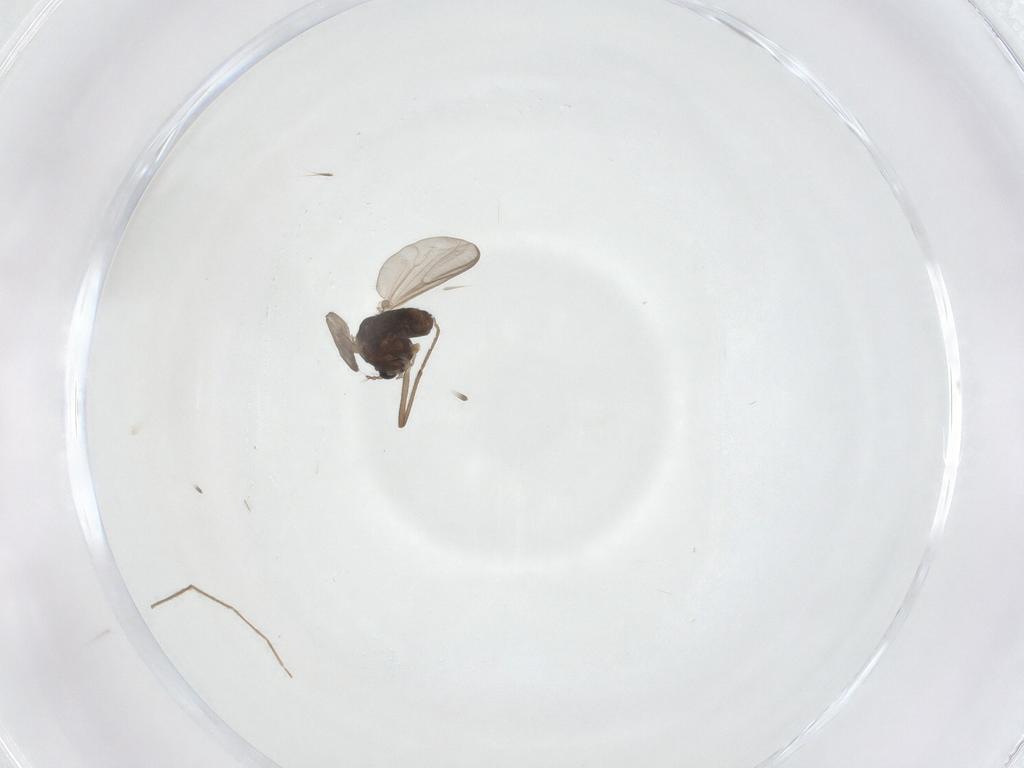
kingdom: Animalia
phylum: Arthropoda
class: Insecta
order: Diptera
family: Chironomidae
